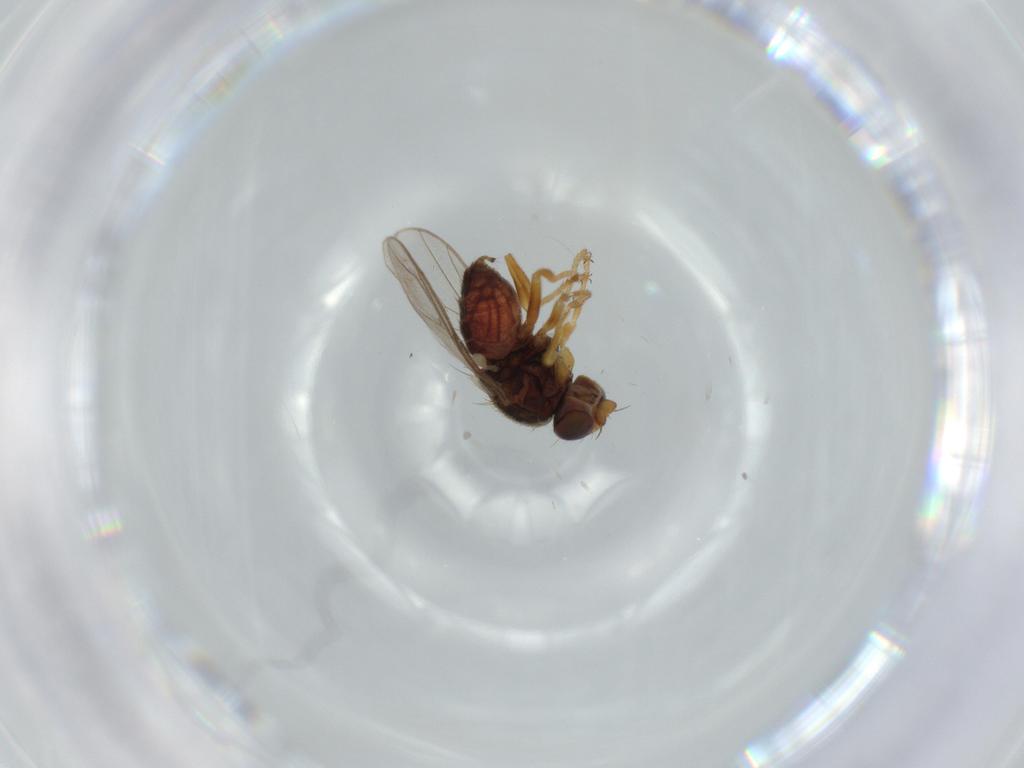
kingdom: Animalia
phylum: Arthropoda
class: Insecta
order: Diptera
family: Chloropidae
